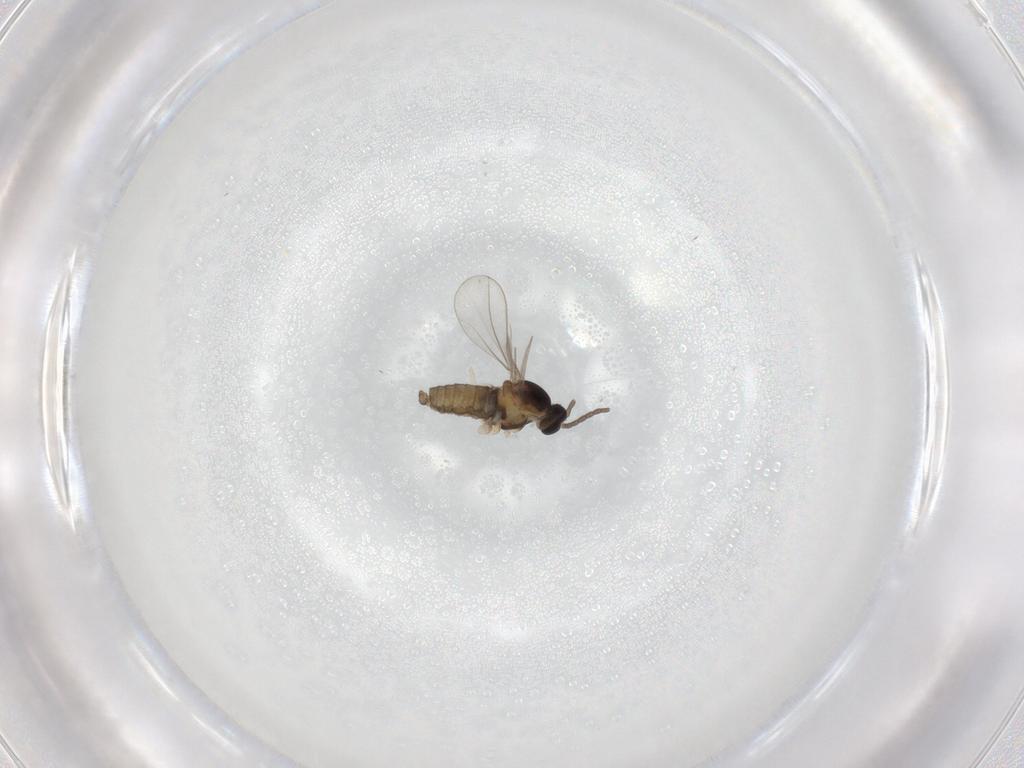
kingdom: Animalia
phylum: Arthropoda
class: Insecta
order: Diptera
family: Cecidomyiidae
